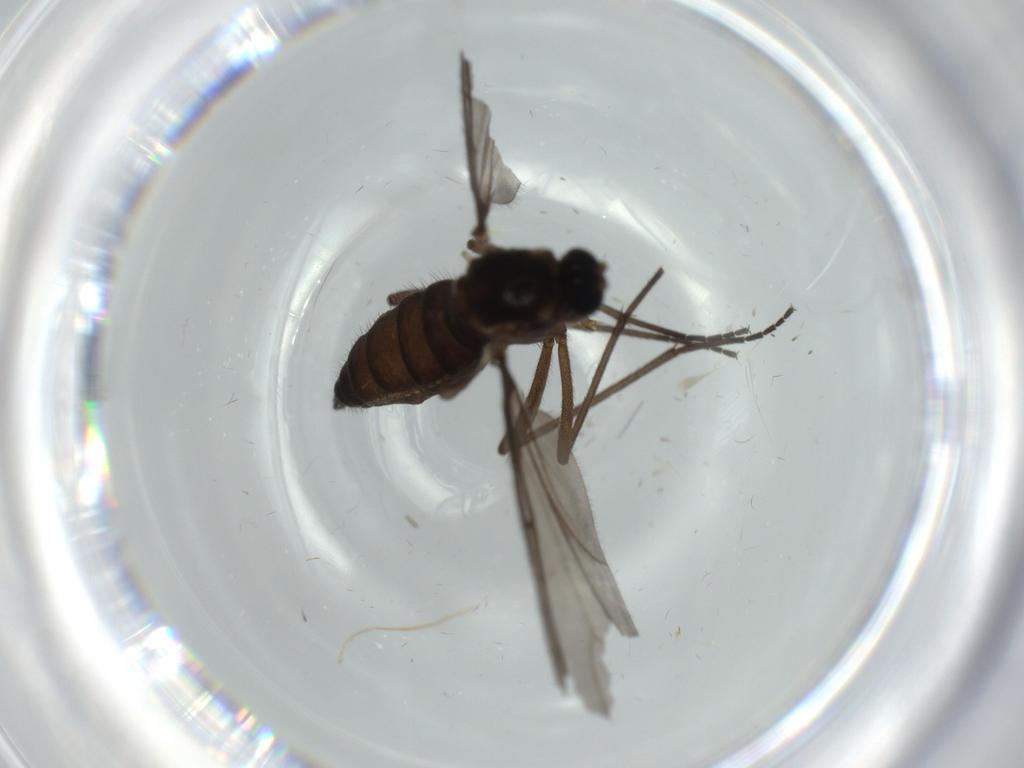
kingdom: Animalia
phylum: Arthropoda
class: Insecta
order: Diptera
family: Sciaridae
